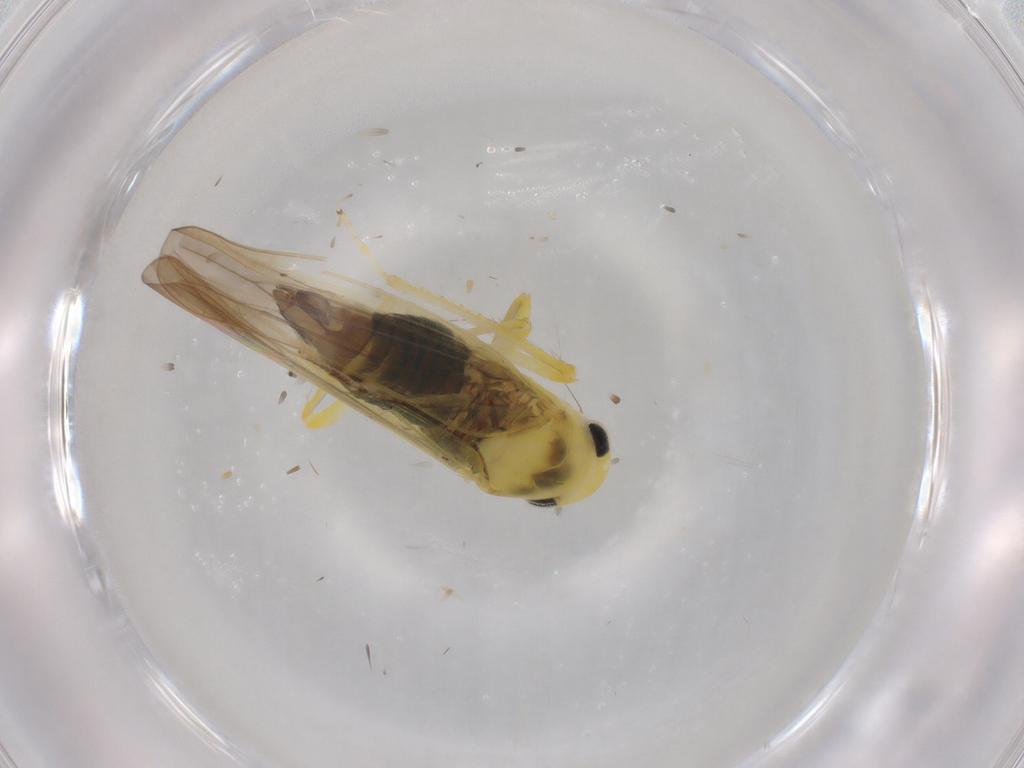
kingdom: Animalia
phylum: Arthropoda
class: Insecta
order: Hemiptera
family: Cicadellidae
